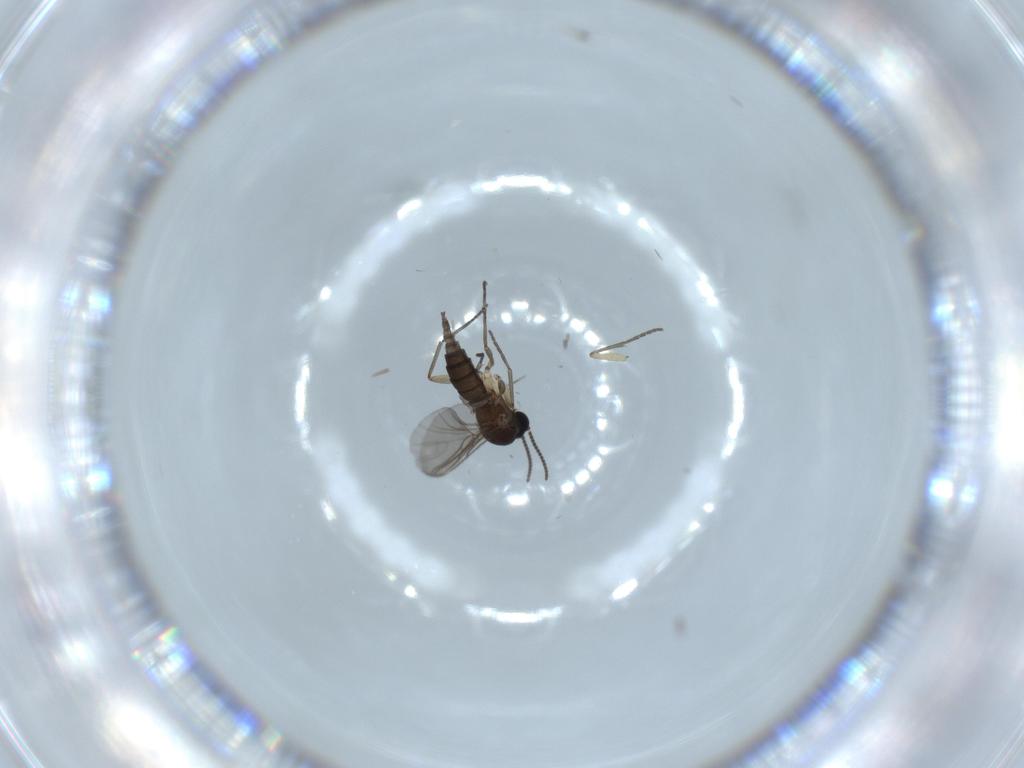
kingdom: Animalia
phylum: Arthropoda
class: Insecta
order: Diptera
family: Sciaridae
